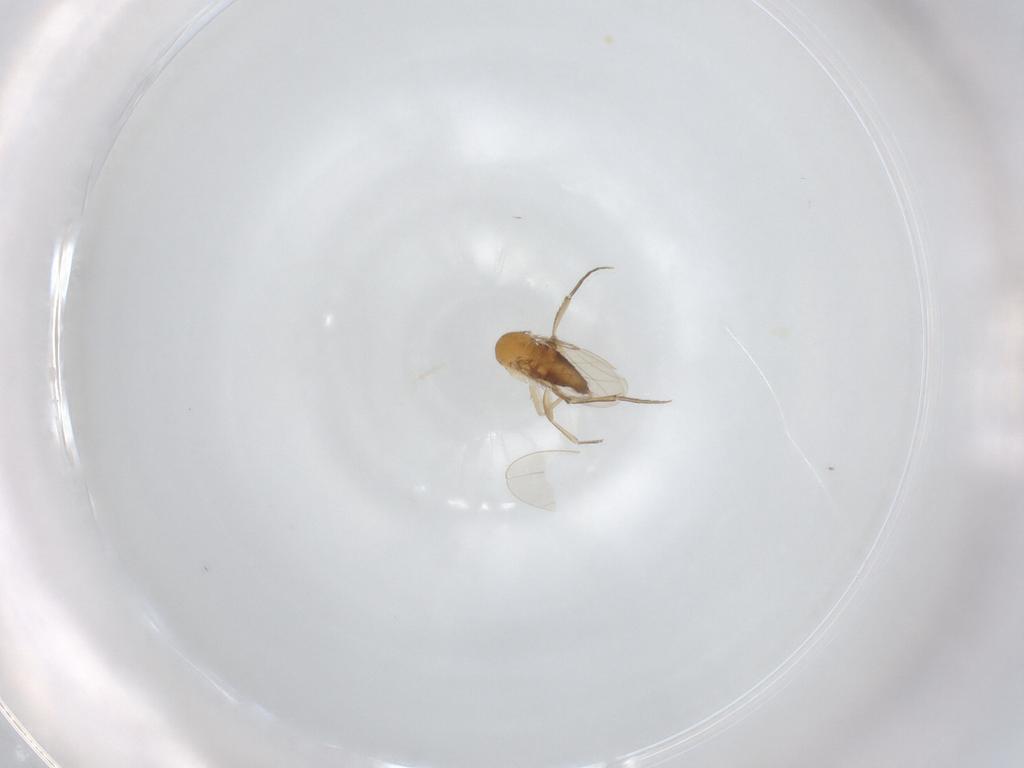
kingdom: Animalia
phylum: Arthropoda
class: Insecta
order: Diptera
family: Phoridae
